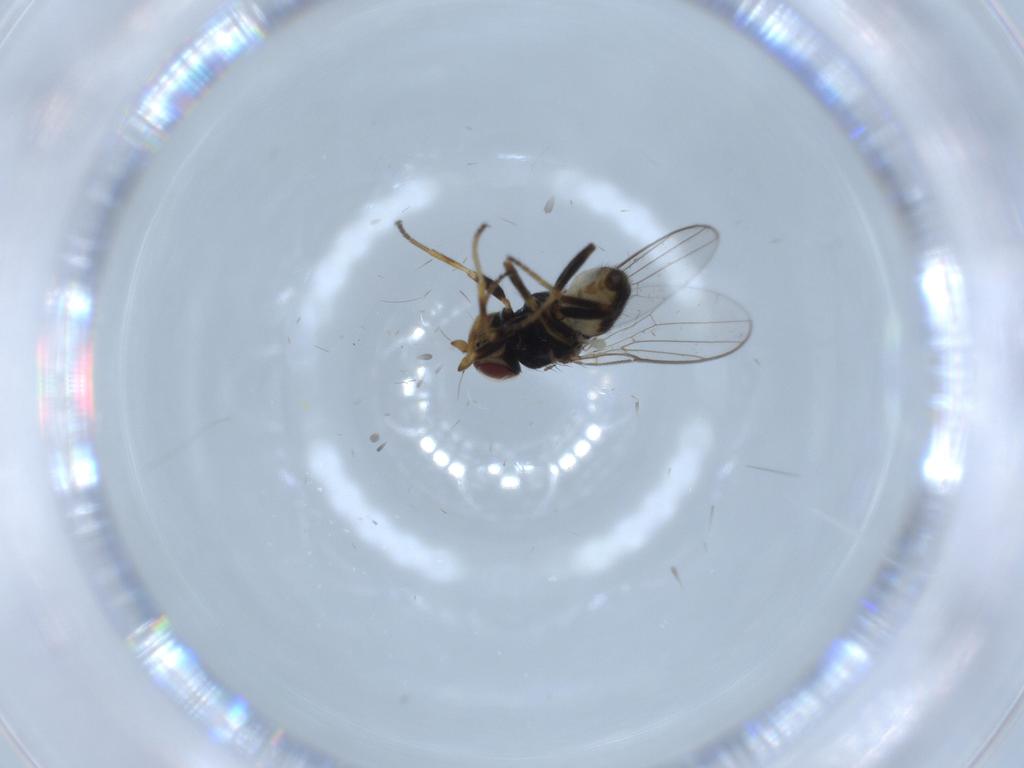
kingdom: Animalia
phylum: Arthropoda
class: Insecta
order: Diptera
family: Chloropidae
